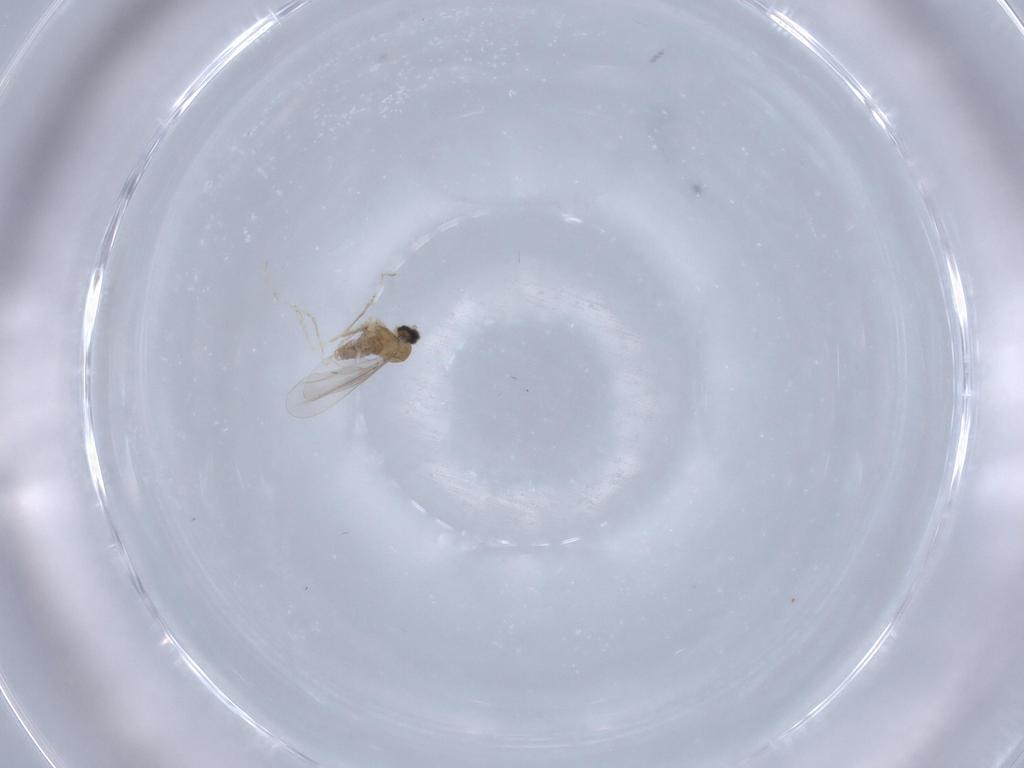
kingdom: Animalia
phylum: Arthropoda
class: Insecta
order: Diptera
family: Cecidomyiidae
